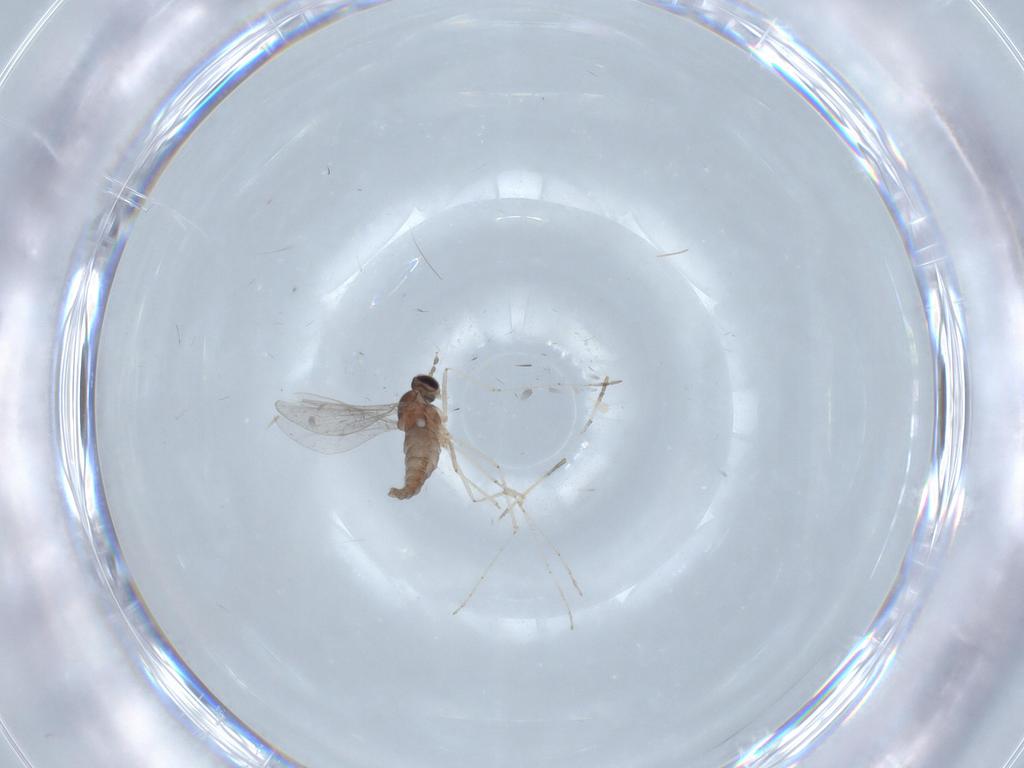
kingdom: Animalia
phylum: Arthropoda
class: Insecta
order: Diptera
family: Cecidomyiidae
